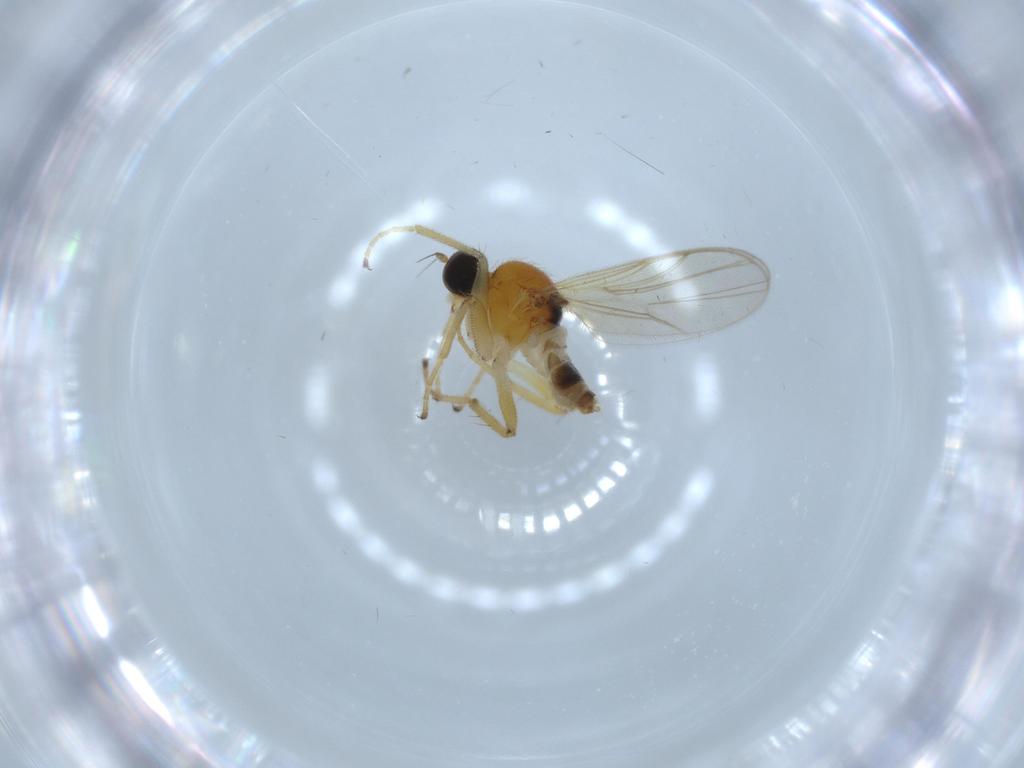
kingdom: Animalia
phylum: Arthropoda
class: Insecta
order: Diptera
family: Hybotidae
